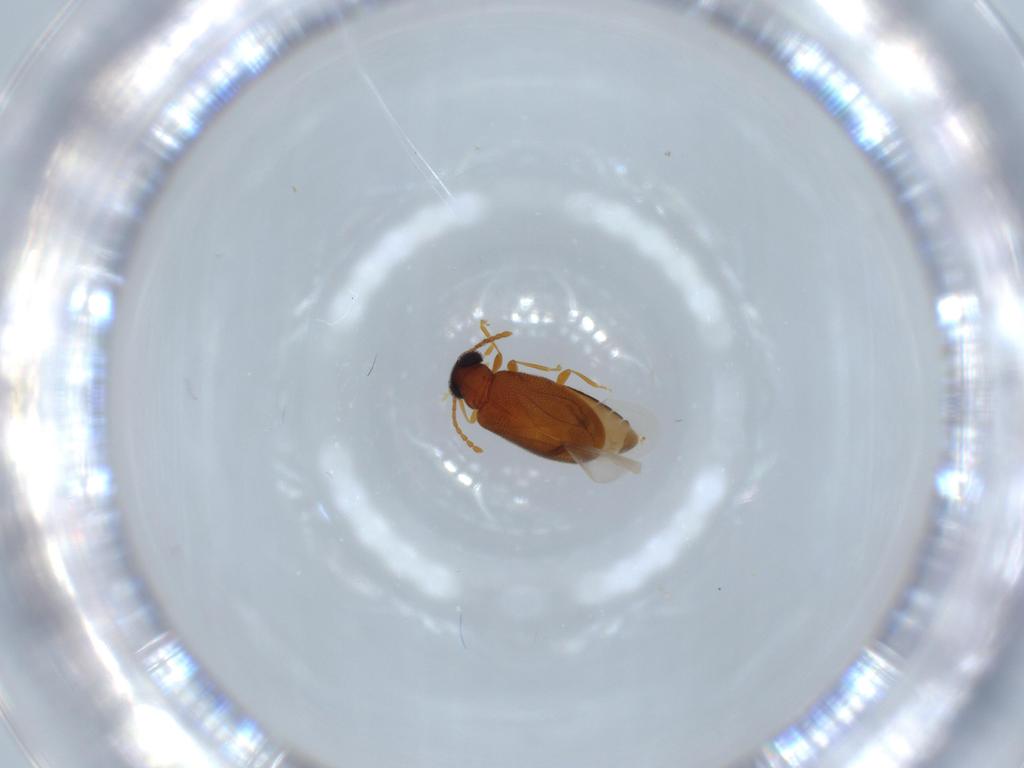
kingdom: Animalia
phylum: Arthropoda
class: Insecta
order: Coleoptera
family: Aderidae
